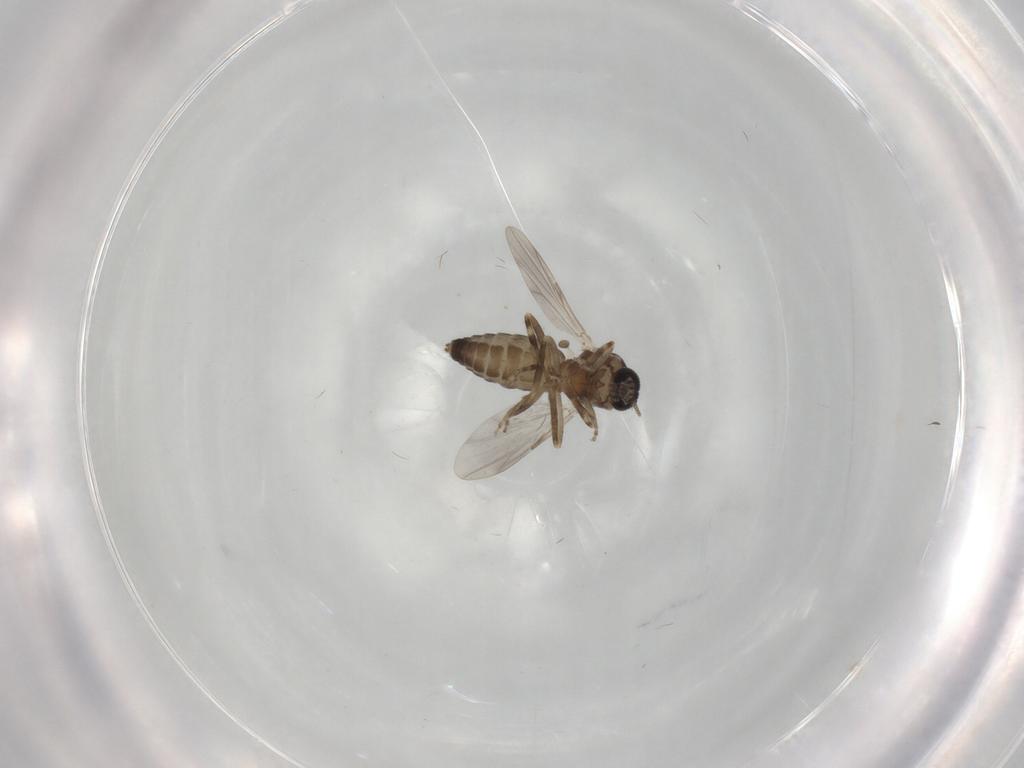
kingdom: Animalia
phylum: Arthropoda
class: Insecta
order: Diptera
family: Ceratopogonidae
